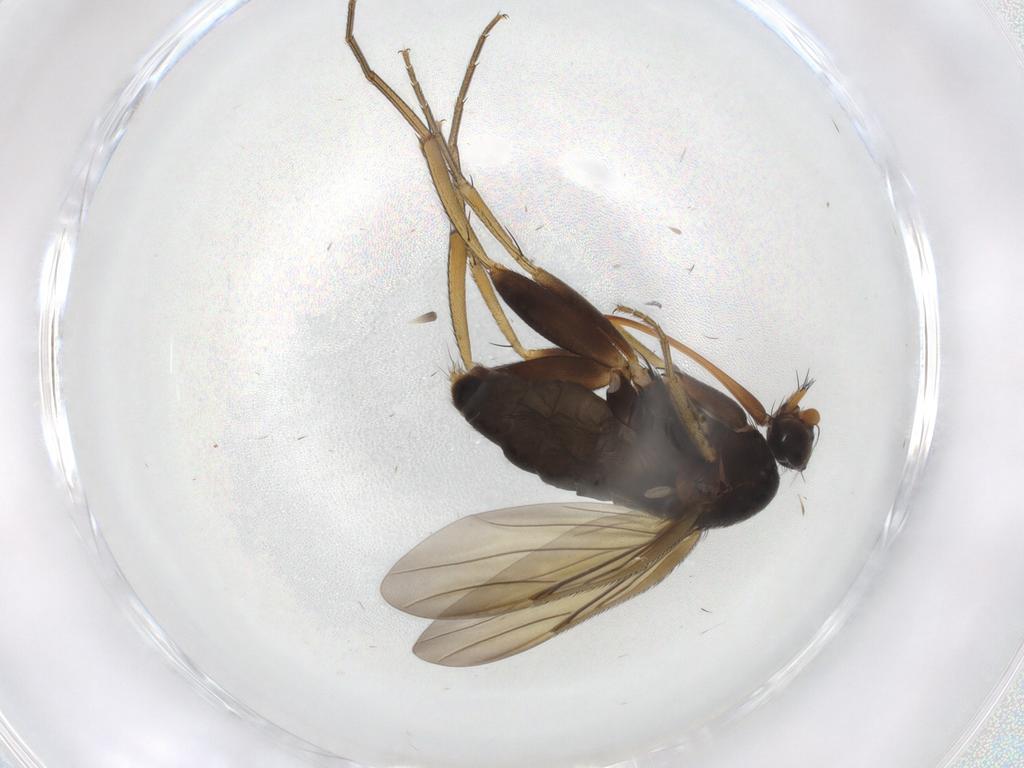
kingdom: Animalia
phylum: Arthropoda
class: Insecta
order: Diptera
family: Phoridae
